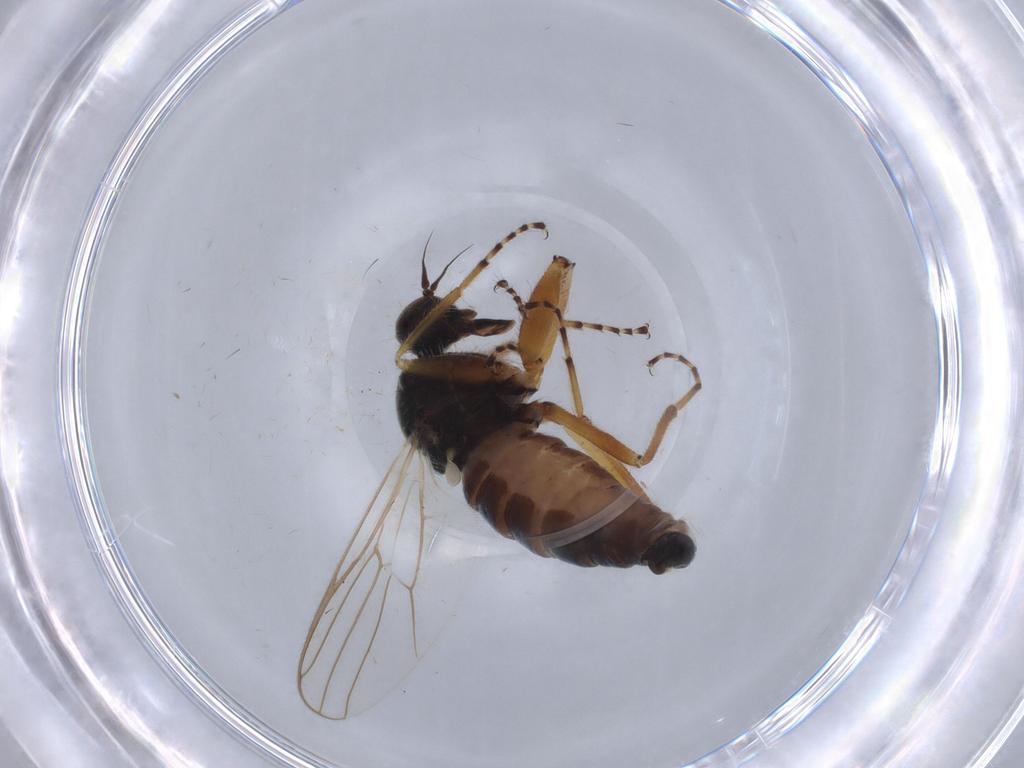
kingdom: Animalia
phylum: Arthropoda
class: Insecta
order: Diptera
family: Hybotidae
